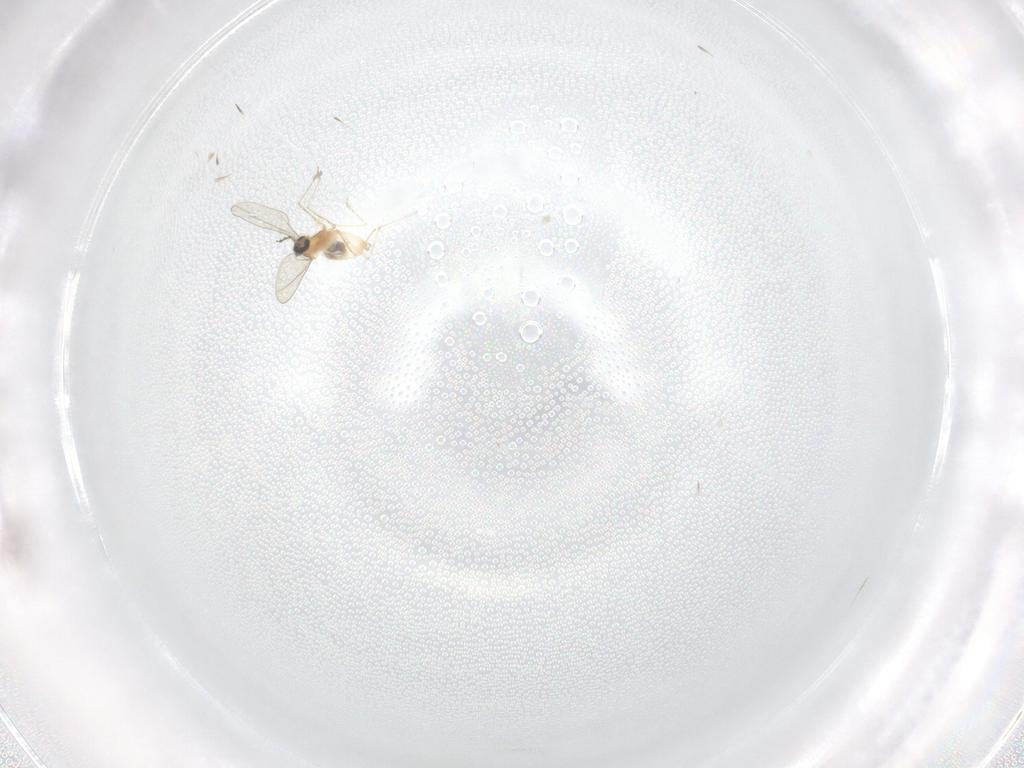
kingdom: Animalia
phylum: Arthropoda
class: Insecta
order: Diptera
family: Cecidomyiidae
